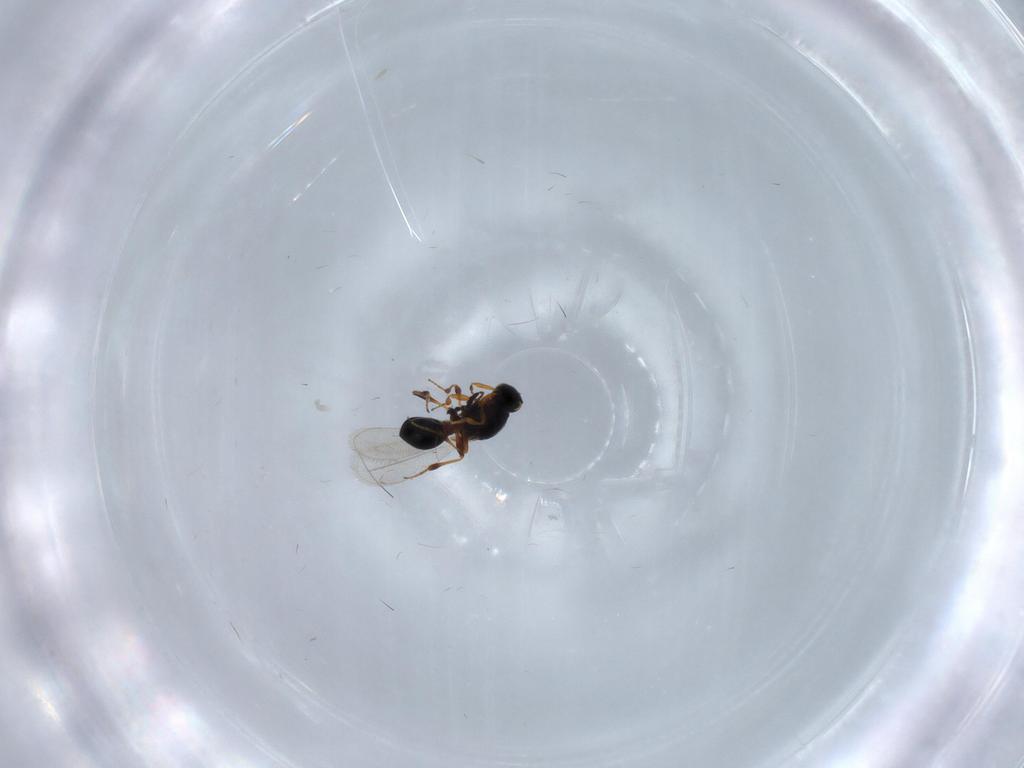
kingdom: Animalia
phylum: Arthropoda
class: Insecta
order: Hymenoptera
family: Platygastridae
